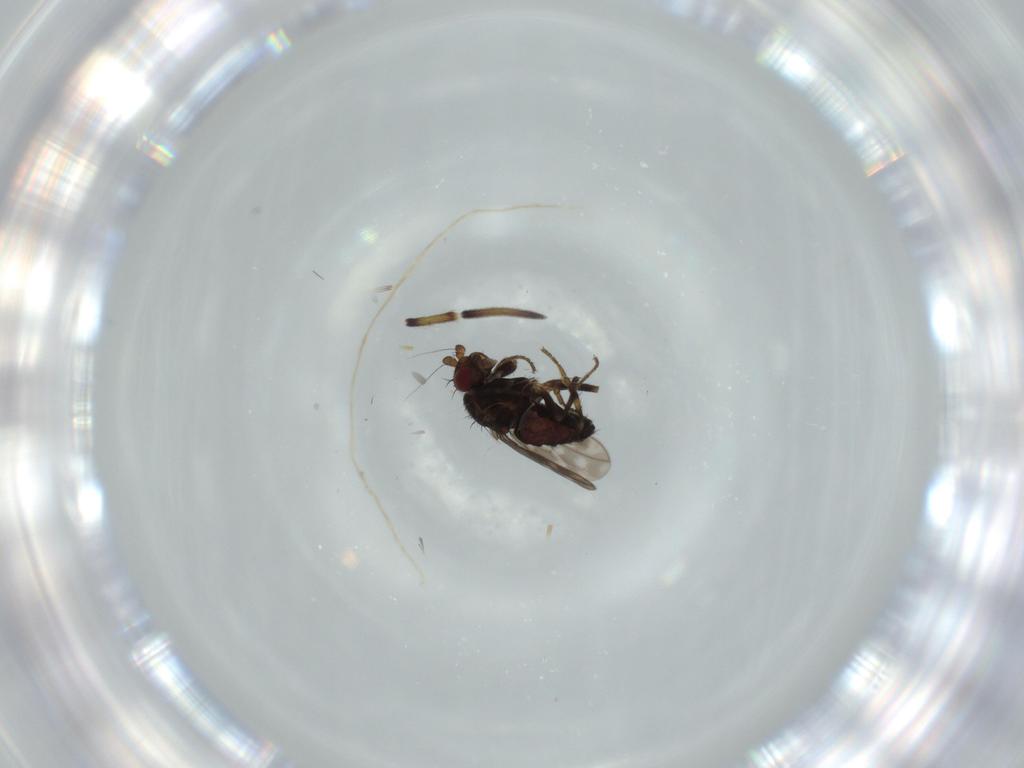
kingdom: Animalia
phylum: Arthropoda
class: Insecta
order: Diptera
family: Sphaeroceridae
